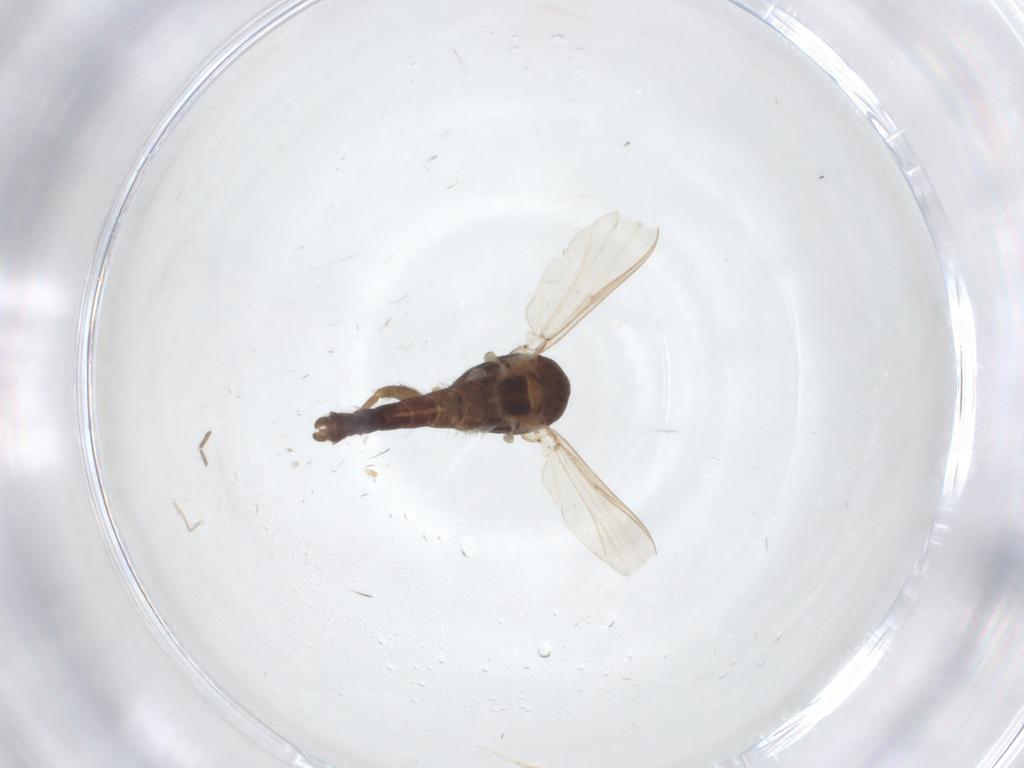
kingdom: Animalia
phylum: Arthropoda
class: Insecta
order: Diptera
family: Chironomidae
